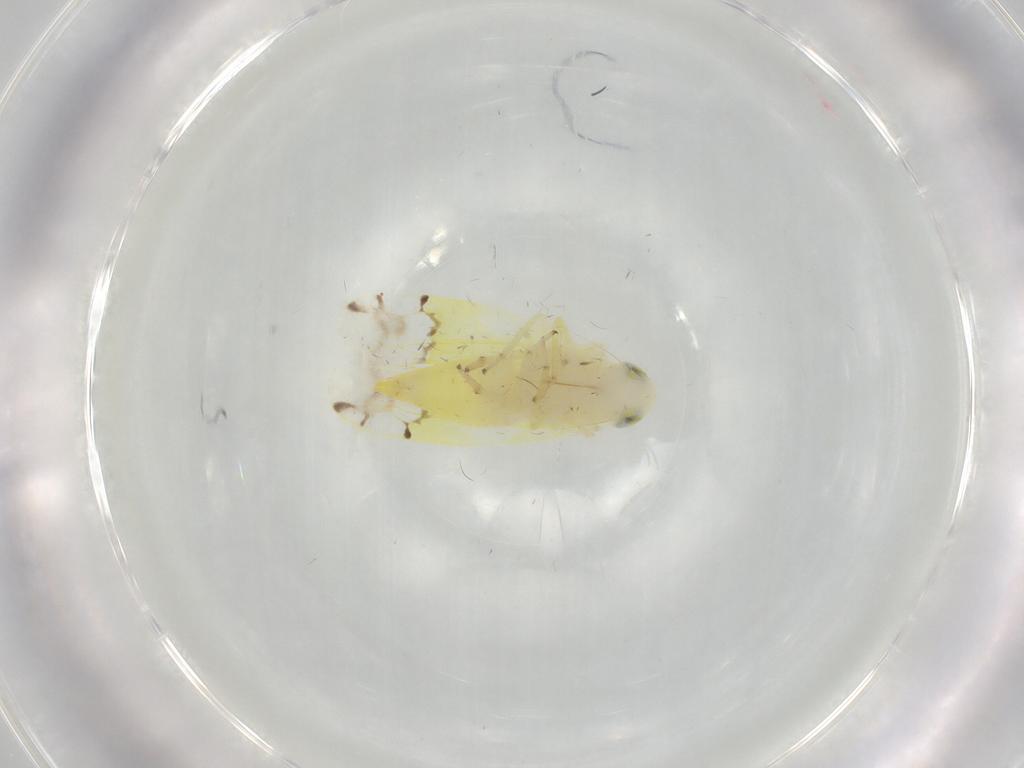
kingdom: Animalia
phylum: Arthropoda
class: Insecta
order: Hemiptera
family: Cicadellidae
